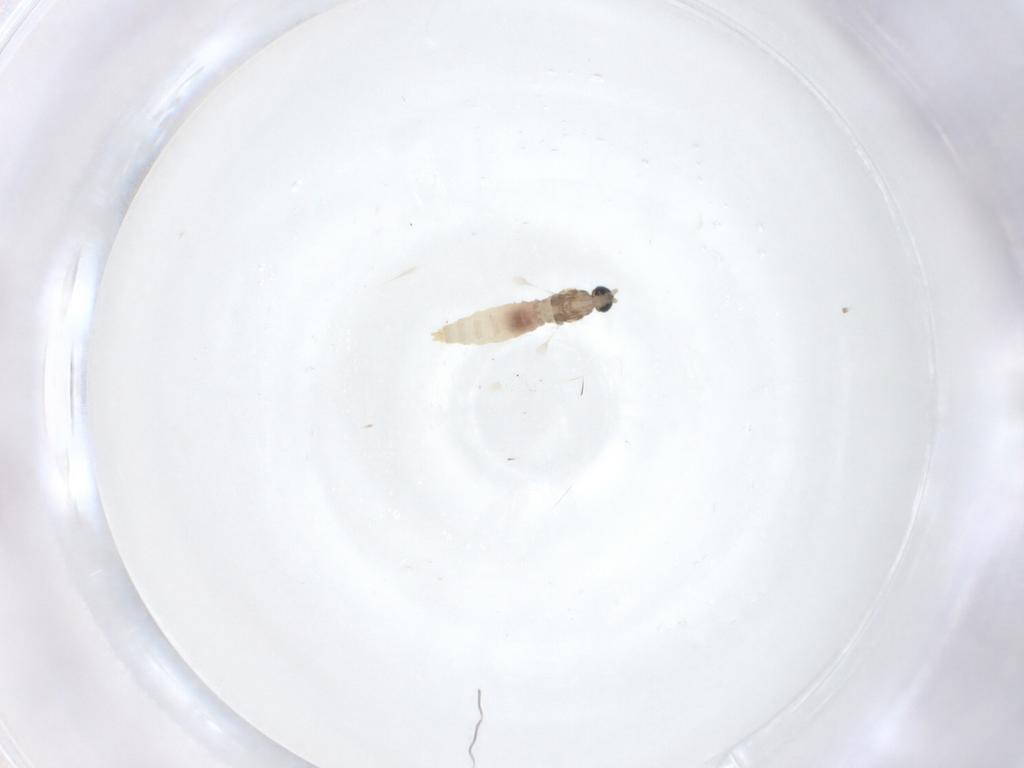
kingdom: Animalia
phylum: Arthropoda
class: Insecta
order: Diptera
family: Cecidomyiidae
